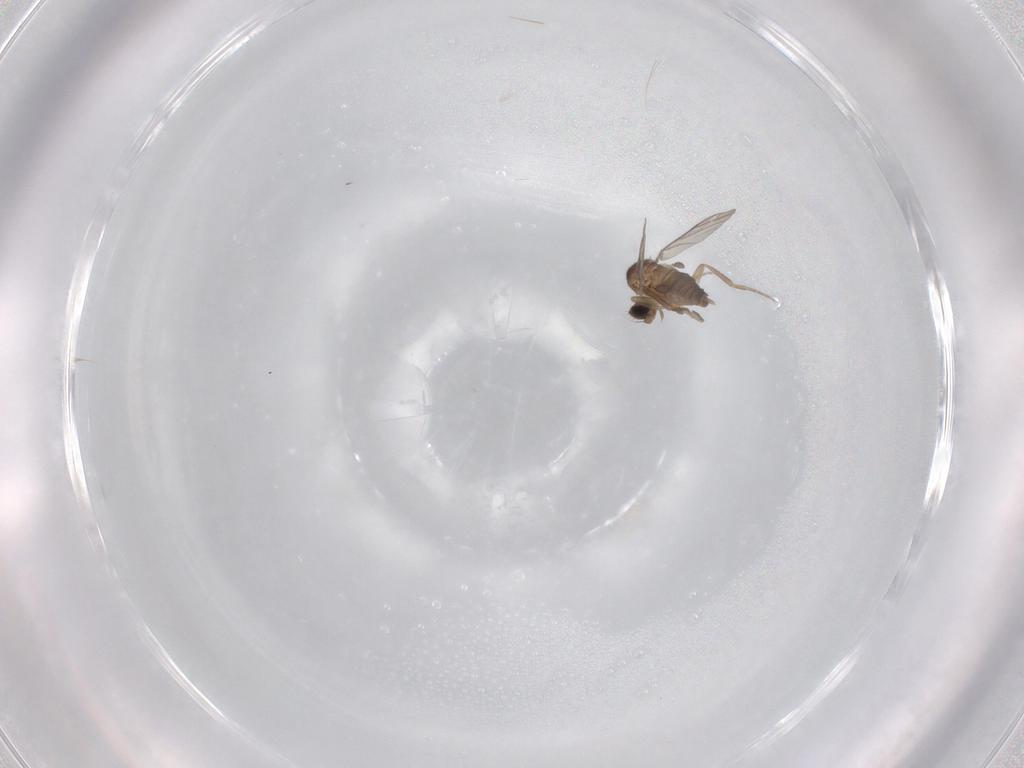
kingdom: Animalia
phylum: Arthropoda
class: Insecta
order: Diptera
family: Phoridae
